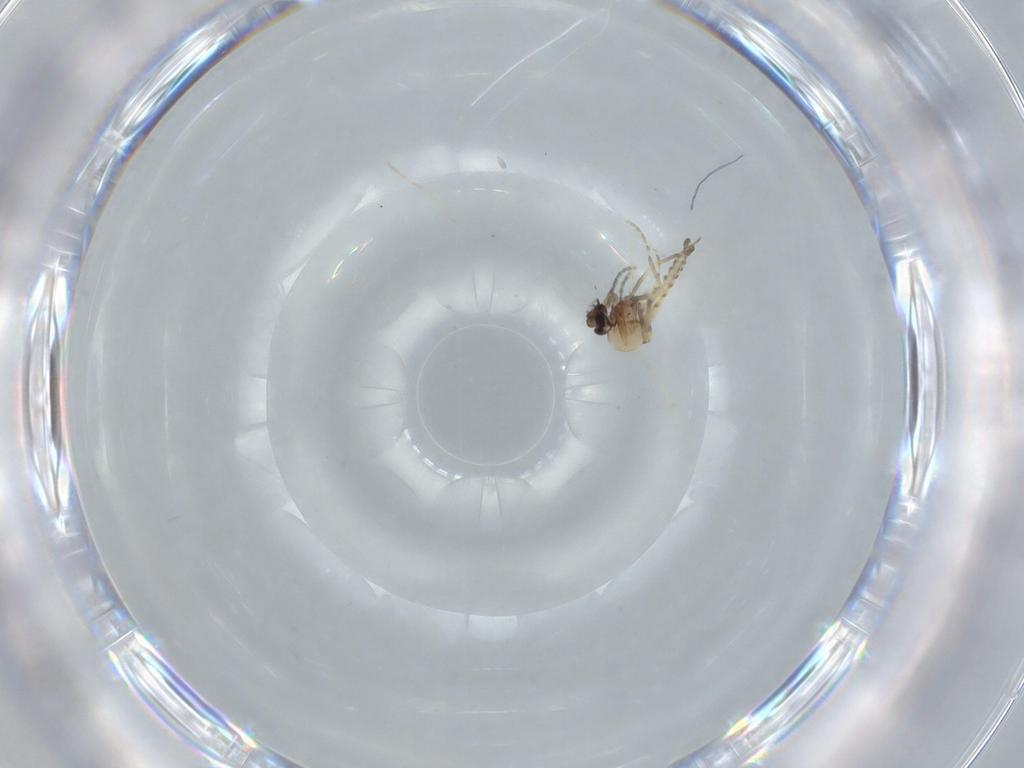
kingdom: Animalia
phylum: Arthropoda
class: Insecta
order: Diptera
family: Ceratopogonidae
